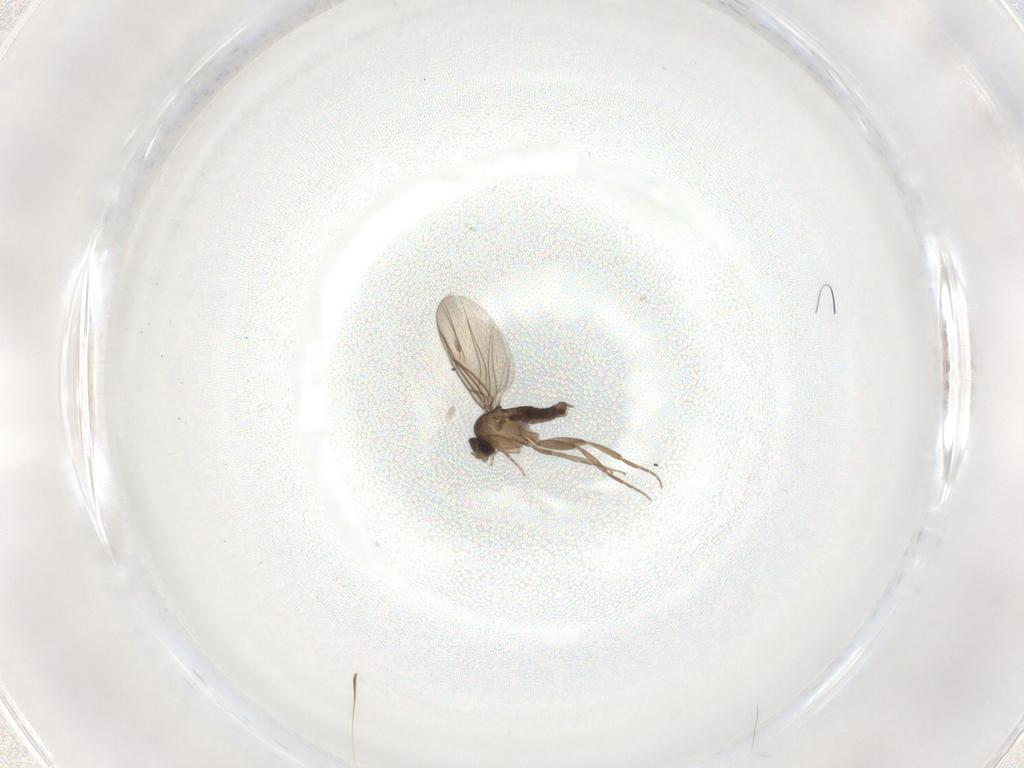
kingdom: Animalia
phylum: Arthropoda
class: Insecta
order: Diptera
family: Phoridae
